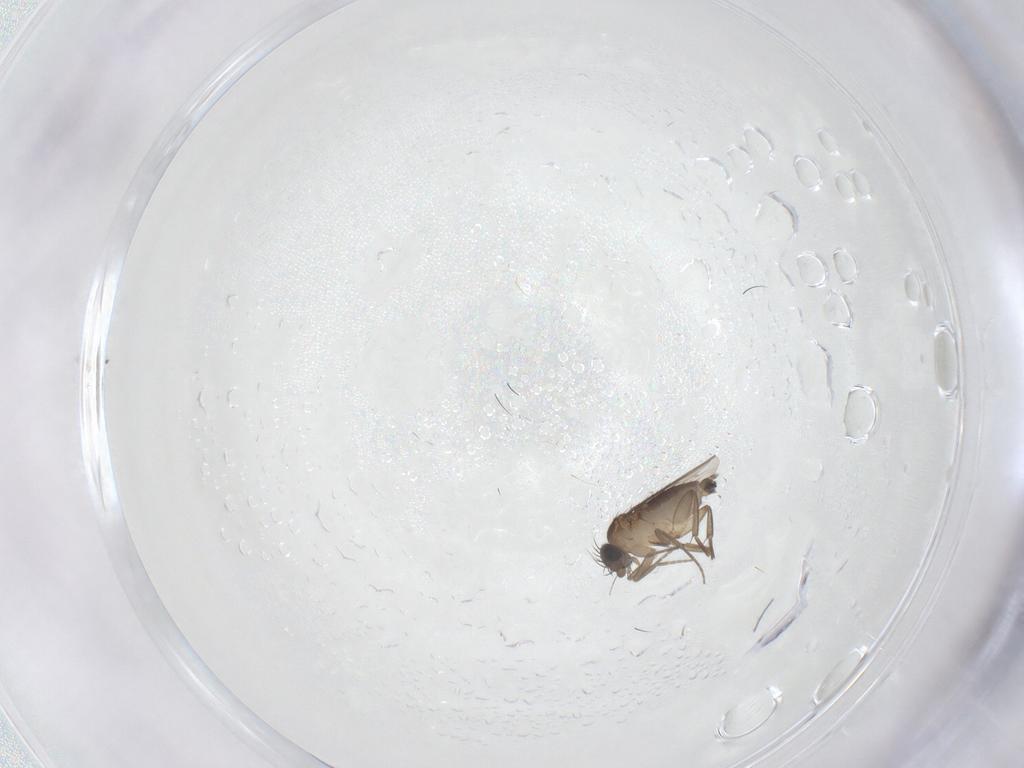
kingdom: Animalia
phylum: Arthropoda
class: Insecta
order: Diptera
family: Phoridae
